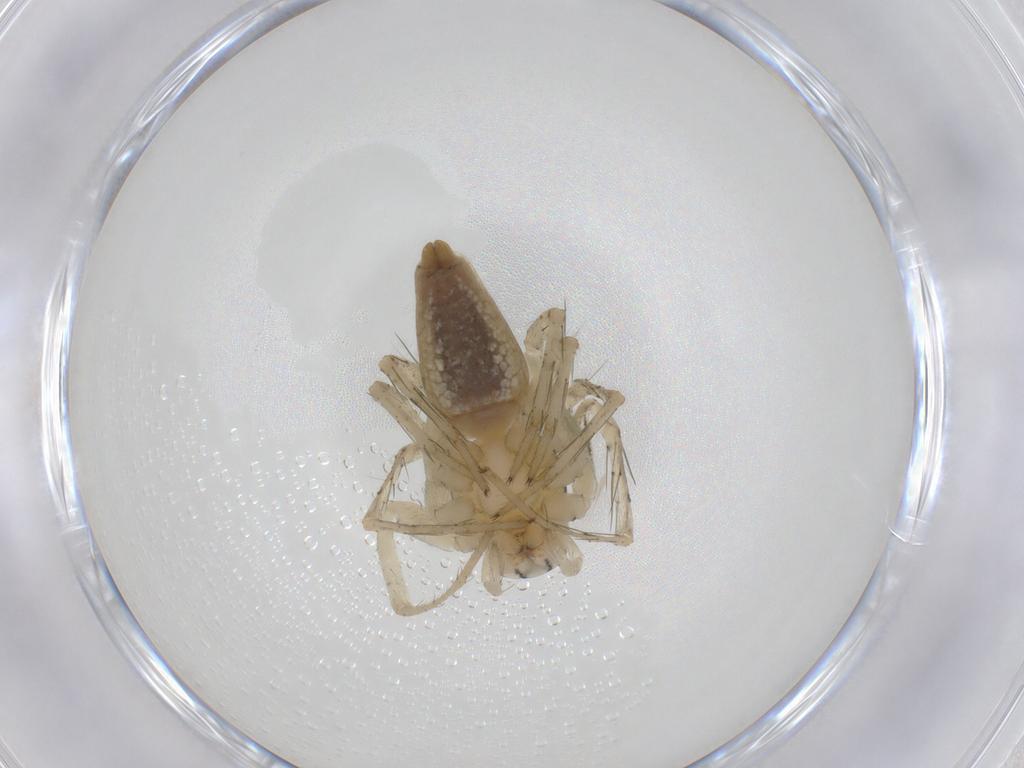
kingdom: Animalia
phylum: Arthropoda
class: Arachnida
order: Araneae
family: Oxyopidae
